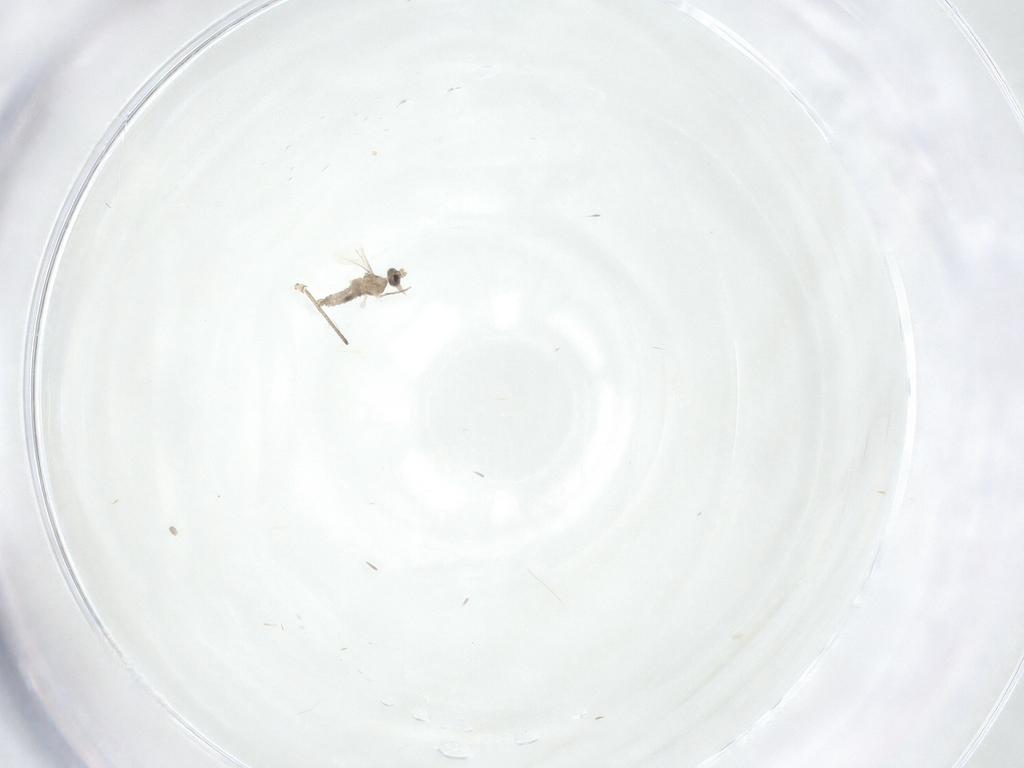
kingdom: Animalia
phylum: Arthropoda
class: Insecta
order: Diptera
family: Cecidomyiidae
